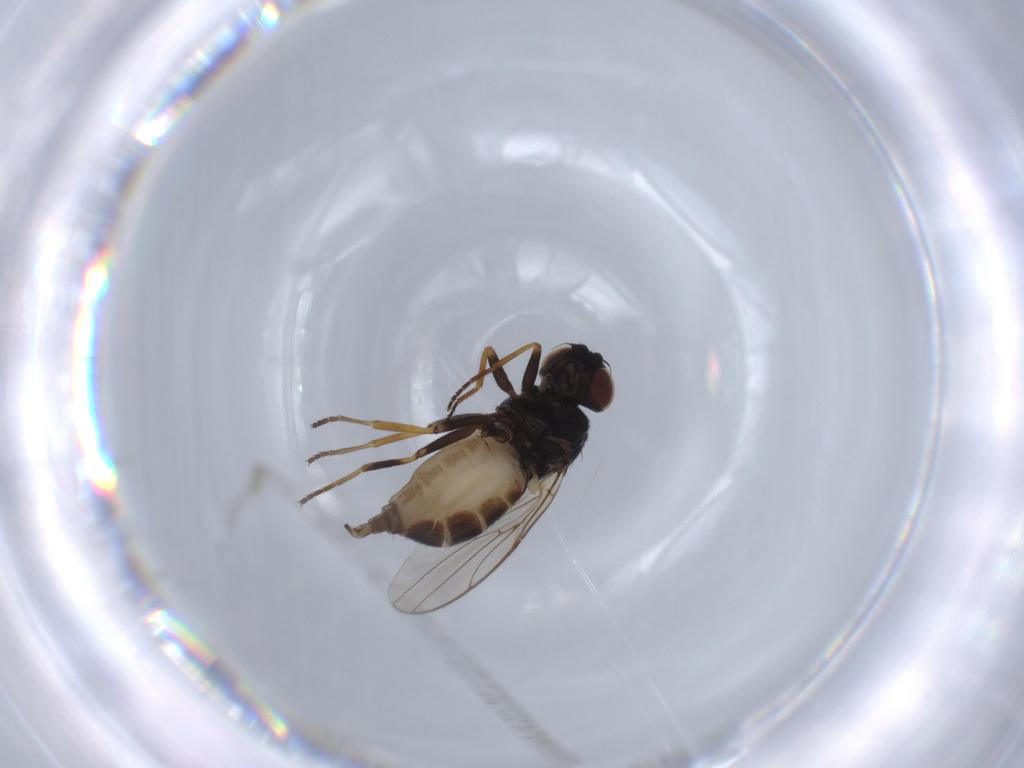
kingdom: Animalia
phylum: Arthropoda
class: Insecta
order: Diptera
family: Chloropidae
